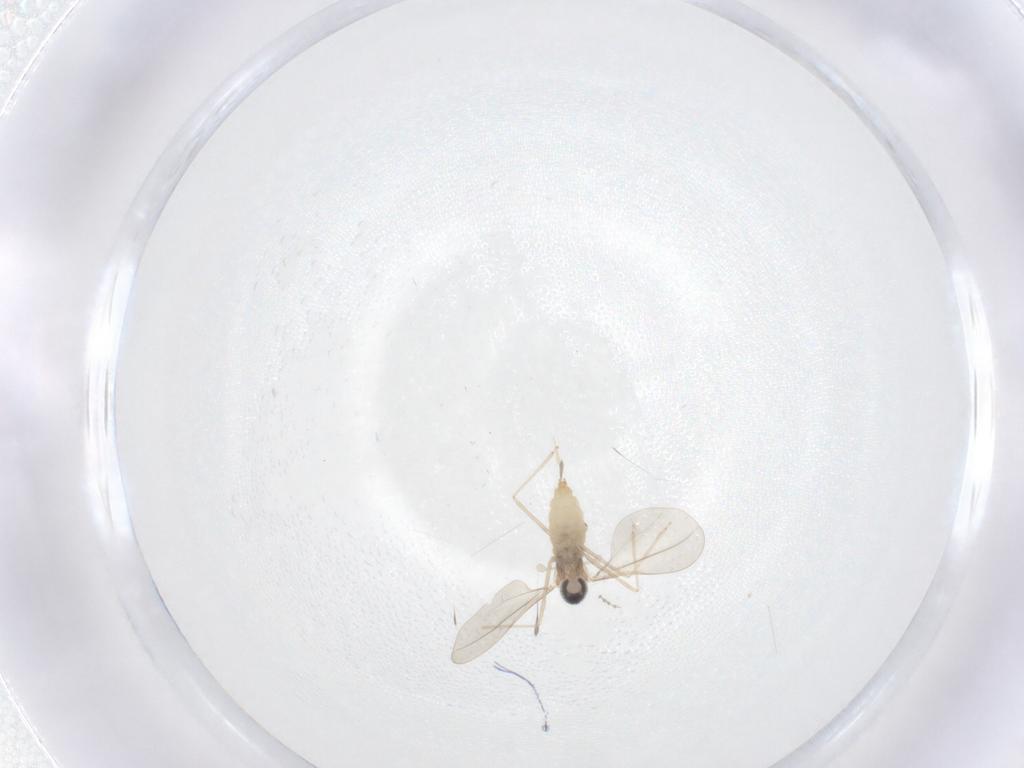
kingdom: Animalia
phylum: Arthropoda
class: Insecta
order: Diptera
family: Cecidomyiidae
